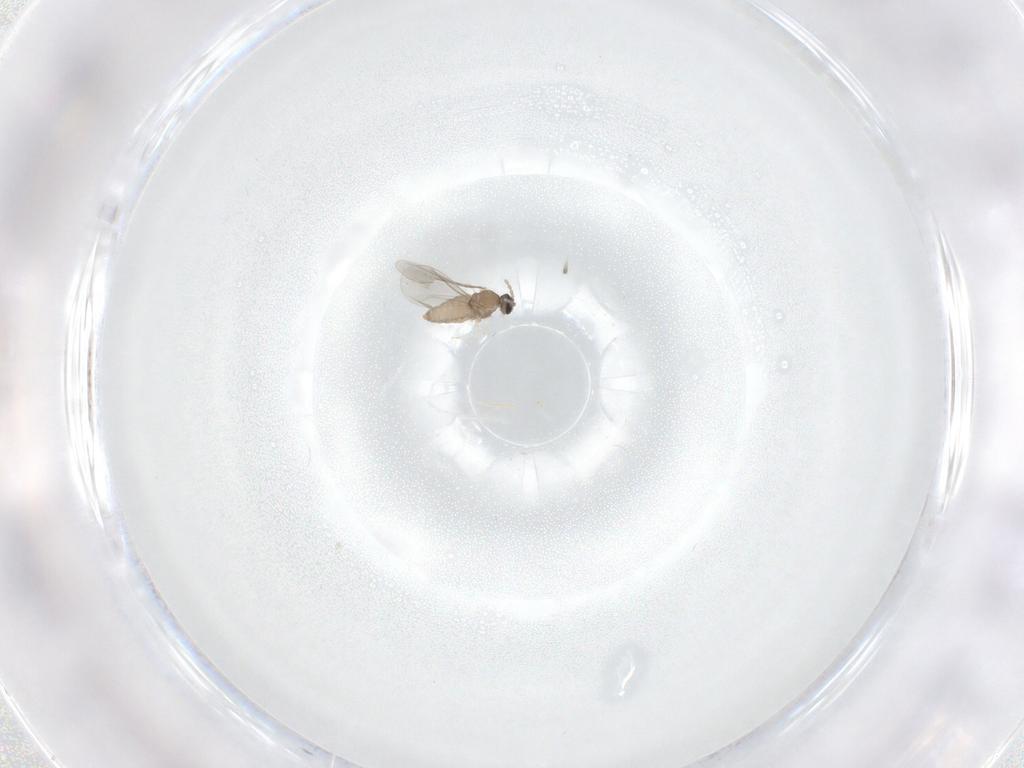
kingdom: Animalia
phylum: Arthropoda
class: Insecta
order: Diptera
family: Cecidomyiidae
